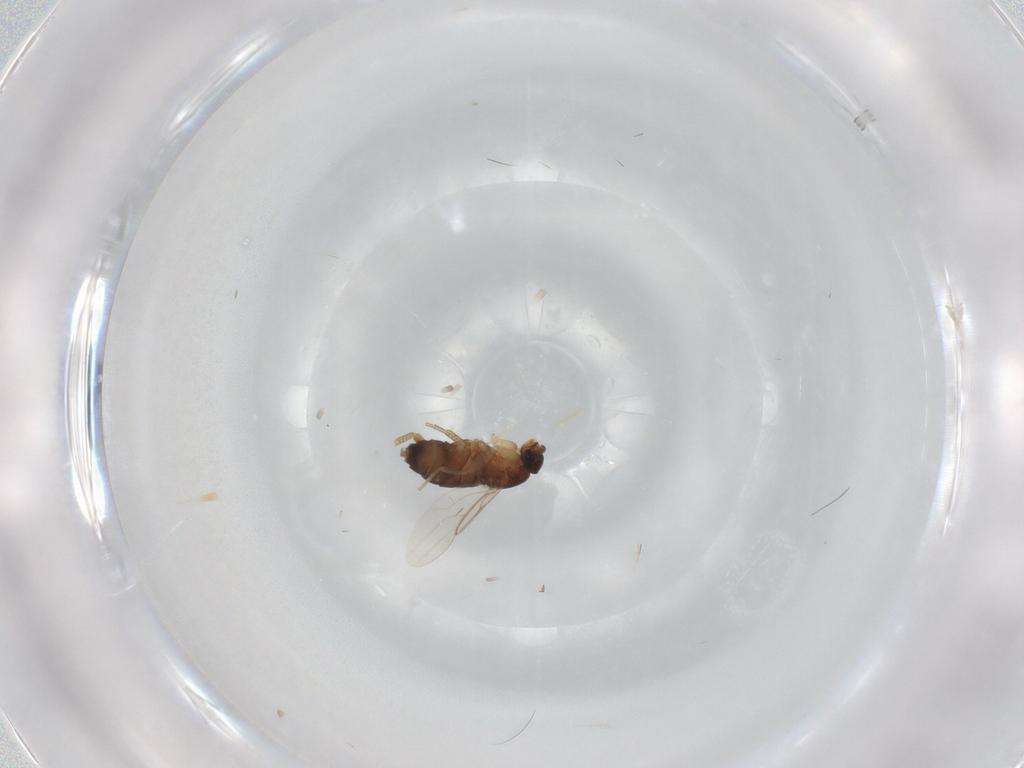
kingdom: Animalia
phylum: Arthropoda
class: Insecta
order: Diptera
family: Phoridae
